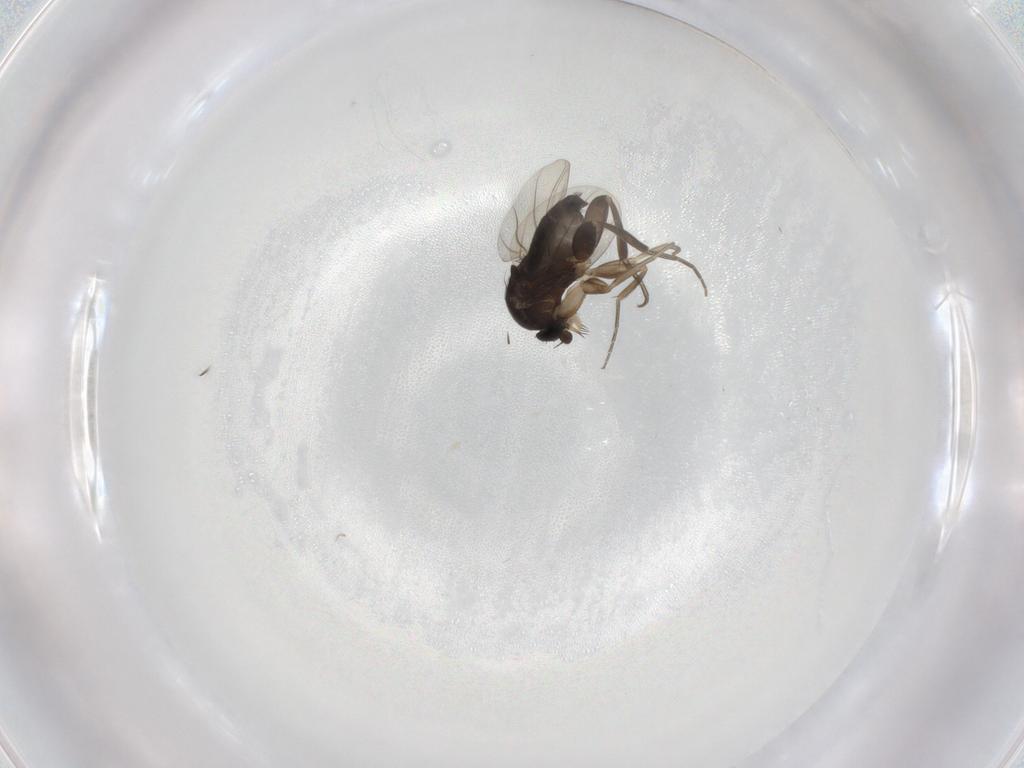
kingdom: Animalia
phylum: Arthropoda
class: Insecta
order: Diptera
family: Phoridae
